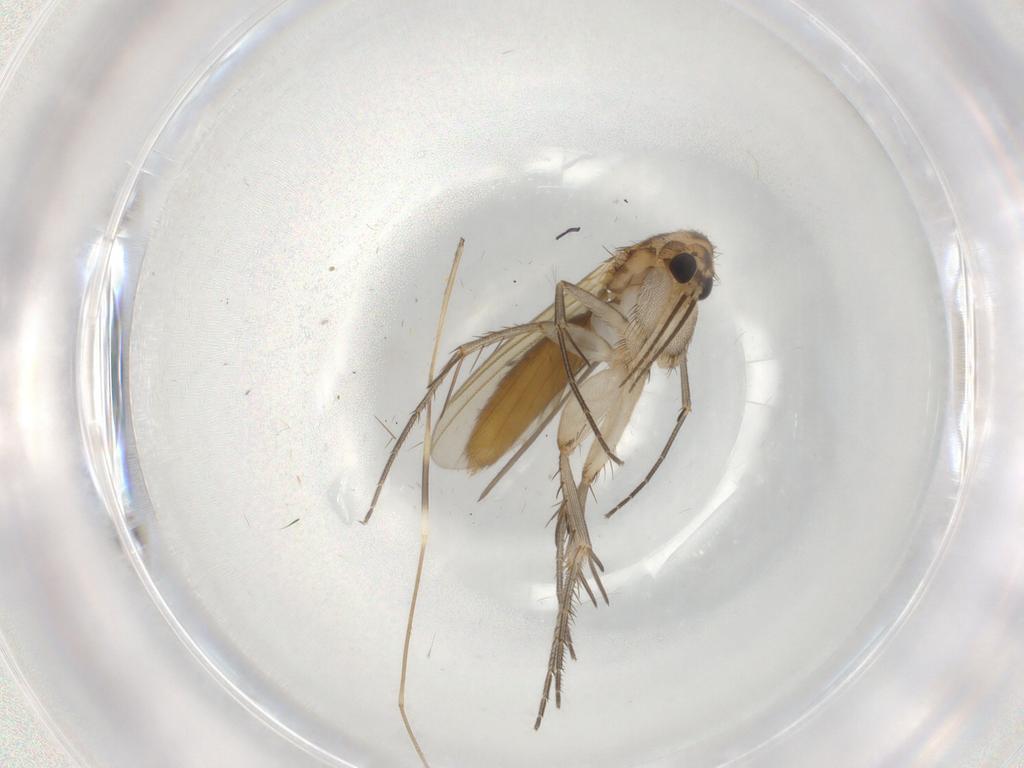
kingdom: Animalia
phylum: Arthropoda
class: Insecta
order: Diptera
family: Mycetophilidae
